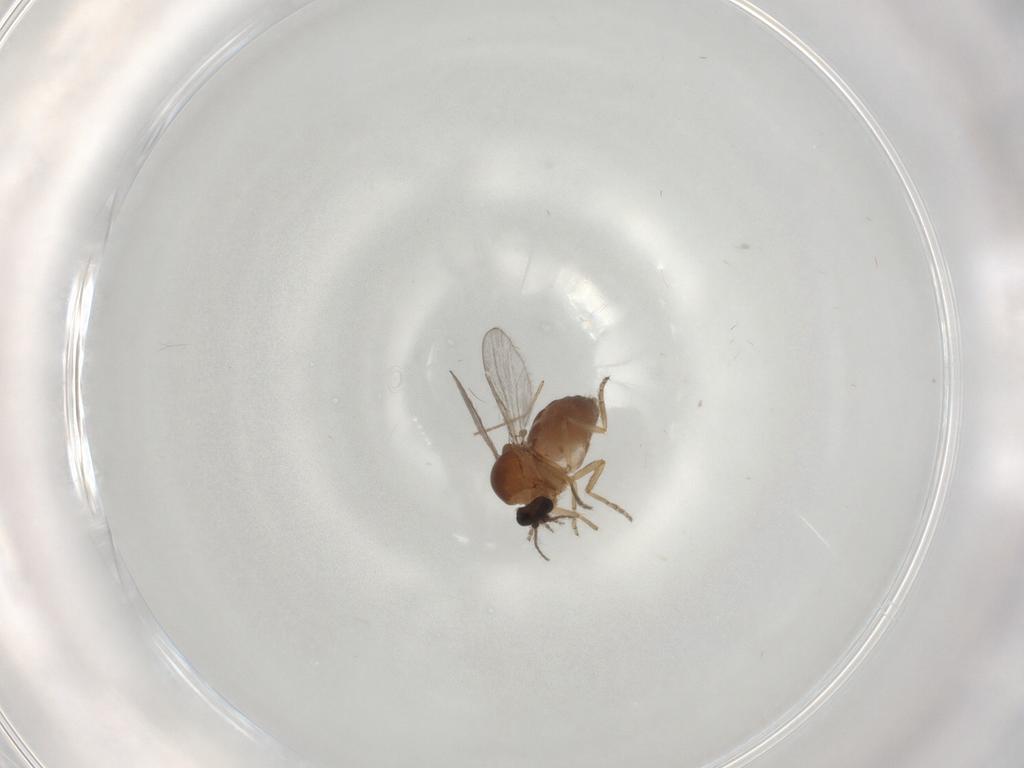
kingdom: Animalia
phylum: Arthropoda
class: Insecta
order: Diptera
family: Ceratopogonidae
